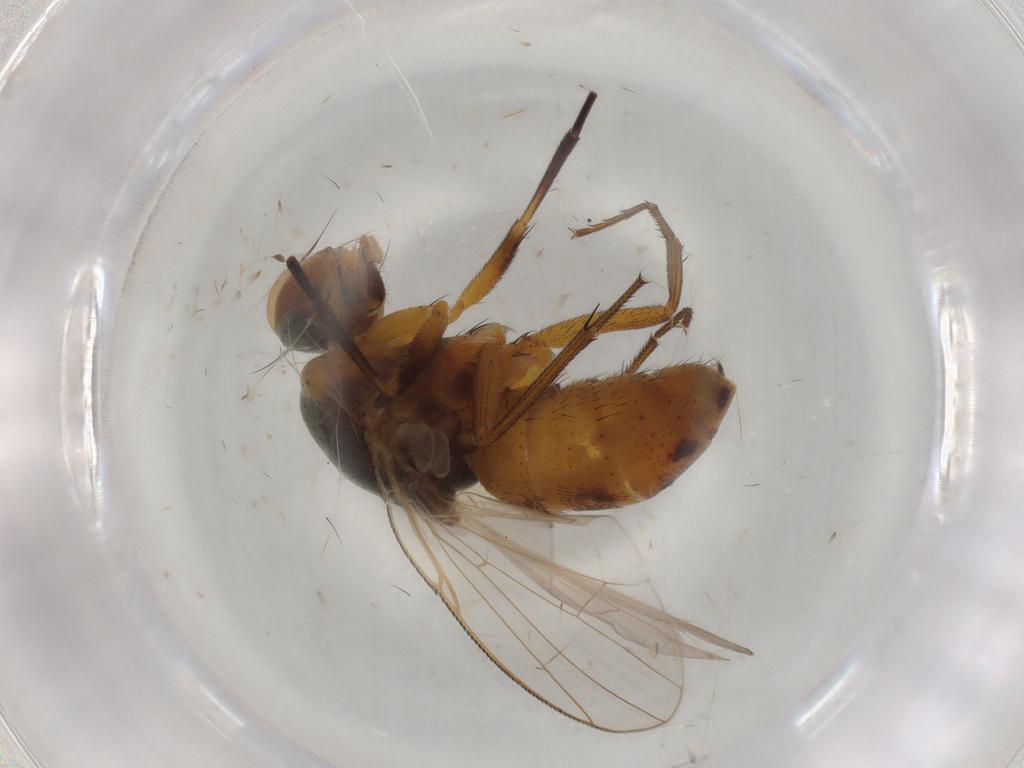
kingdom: Animalia
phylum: Arthropoda
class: Insecta
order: Diptera
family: Muscidae
